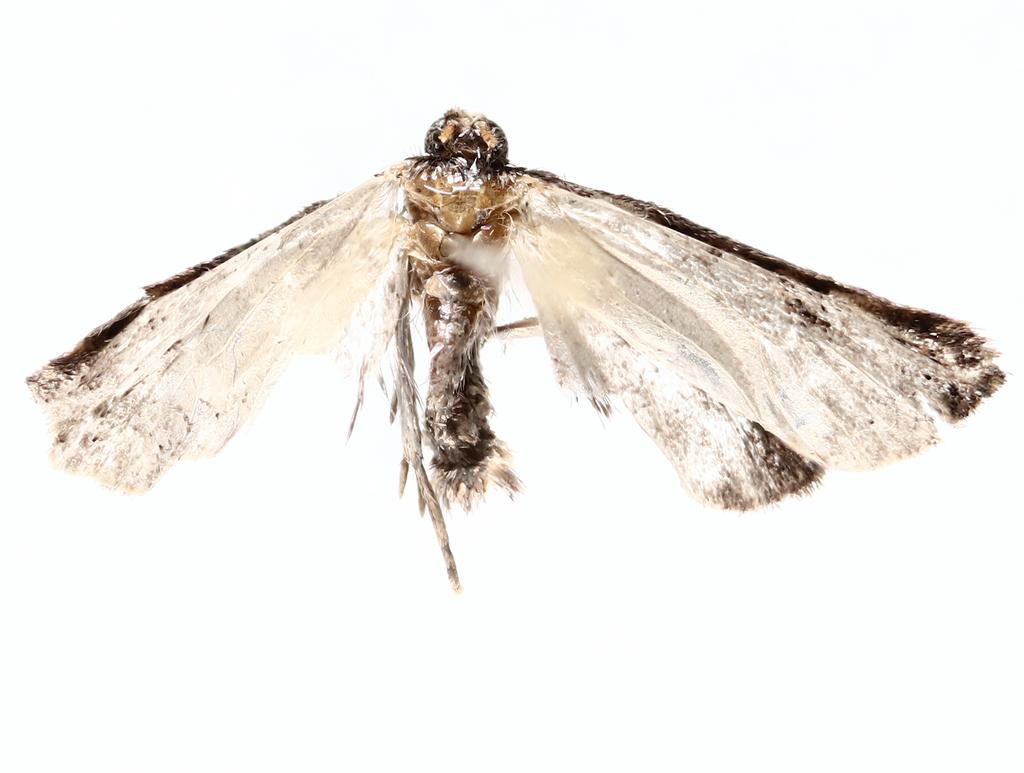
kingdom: Animalia
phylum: Arthropoda
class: Insecta
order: Diptera
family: Cecidomyiidae
